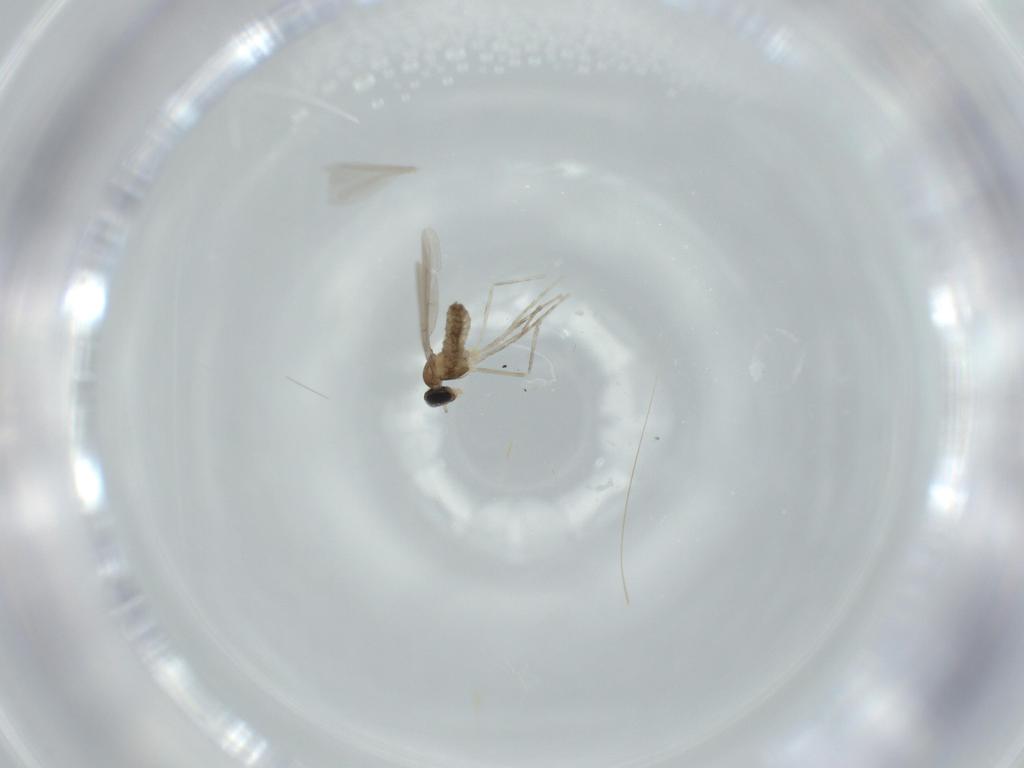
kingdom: Animalia
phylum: Arthropoda
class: Insecta
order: Diptera
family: Cecidomyiidae
